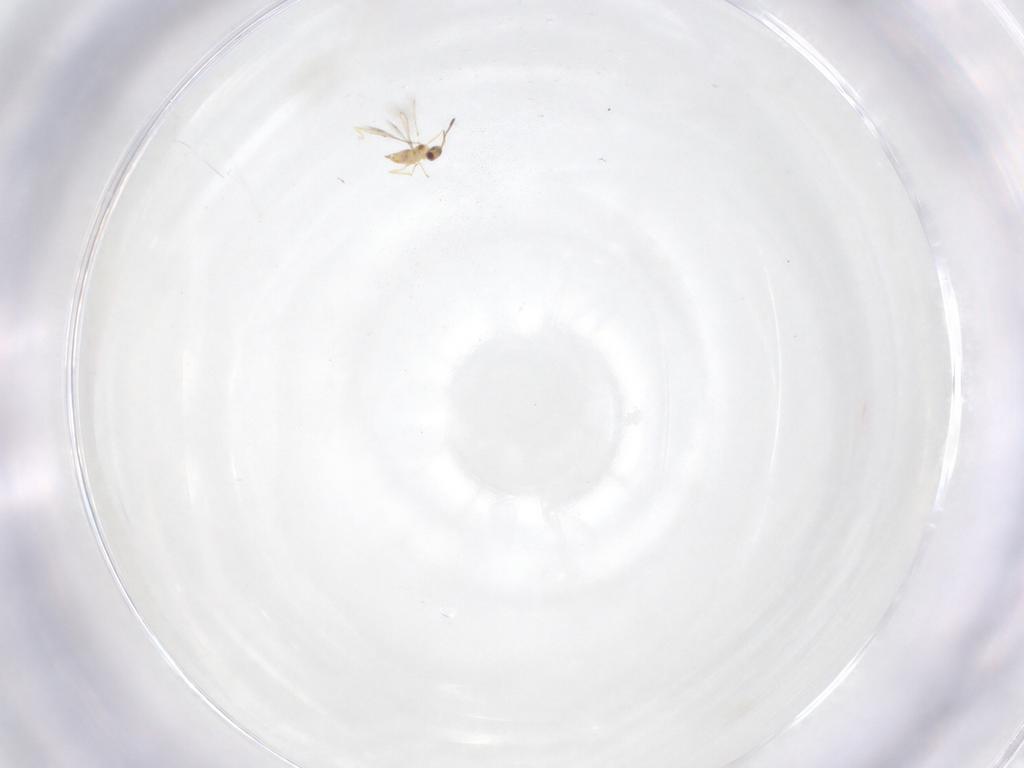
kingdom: Animalia
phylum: Arthropoda
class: Insecta
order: Hymenoptera
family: Mymaridae
